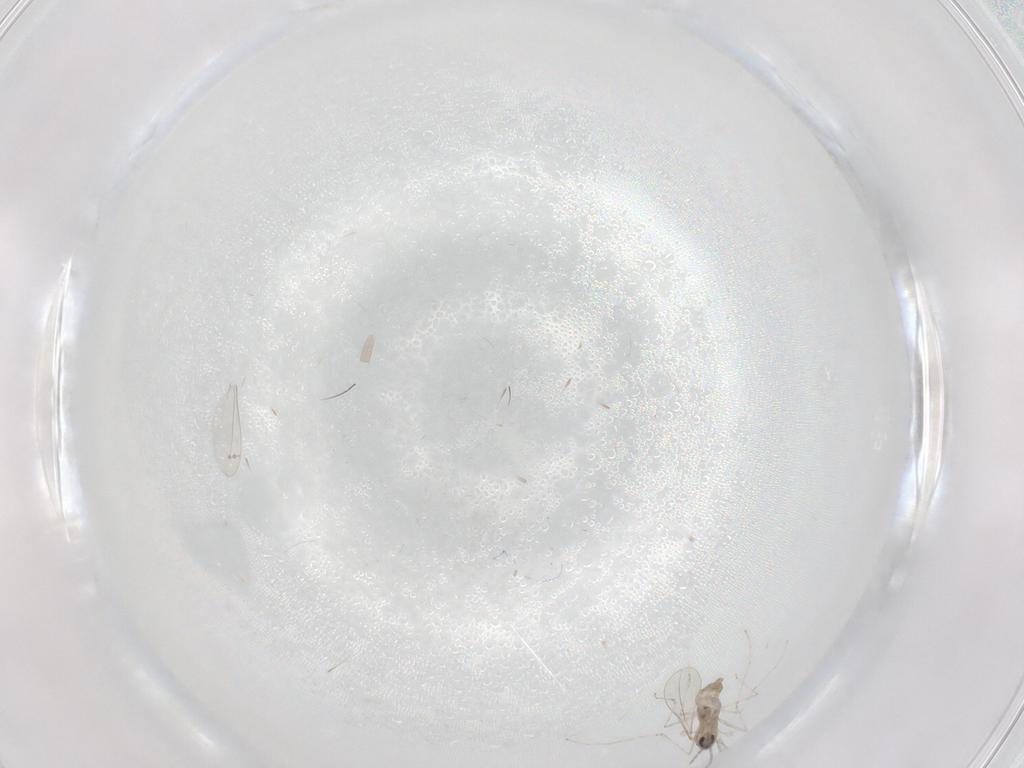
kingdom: Animalia
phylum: Arthropoda
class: Insecta
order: Diptera
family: Cecidomyiidae
